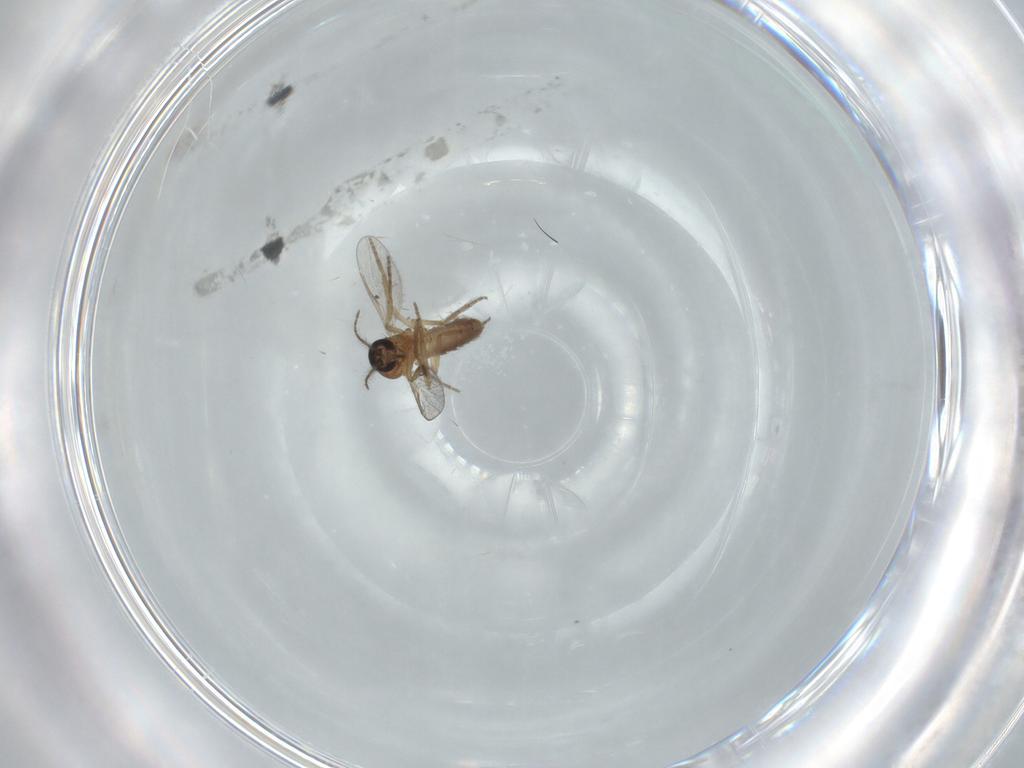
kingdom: Animalia
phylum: Arthropoda
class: Insecta
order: Diptera
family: Chironomidae
